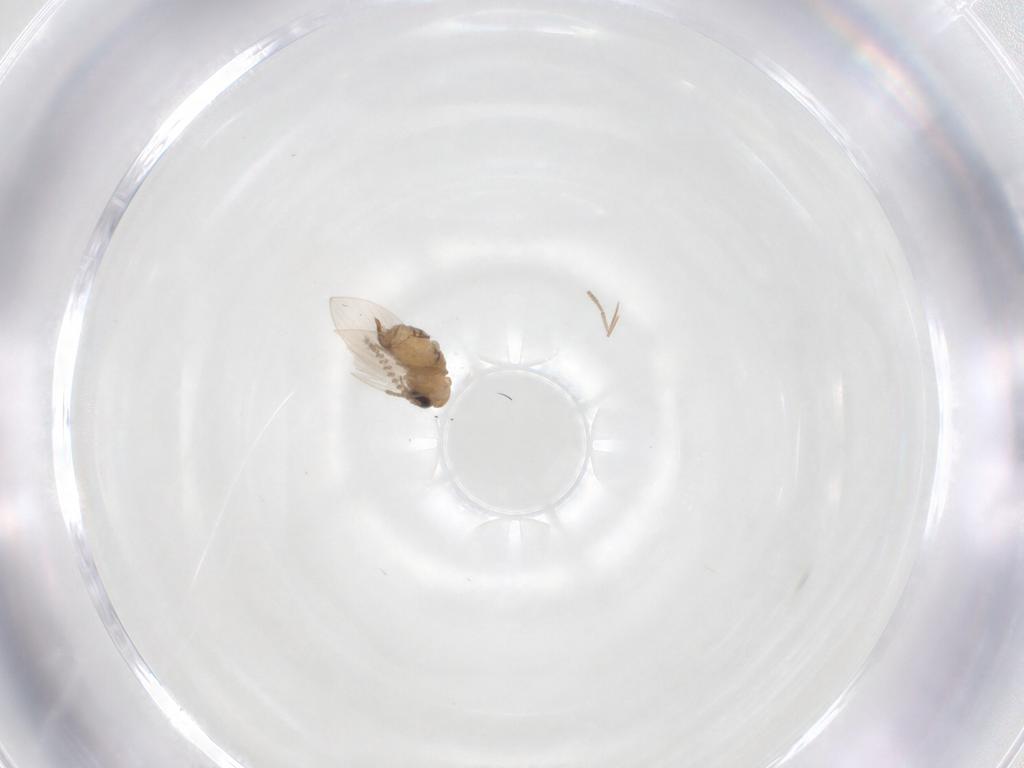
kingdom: Animalia
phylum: Arthropoda
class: Insecta
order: Diptera
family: Psychodidae
